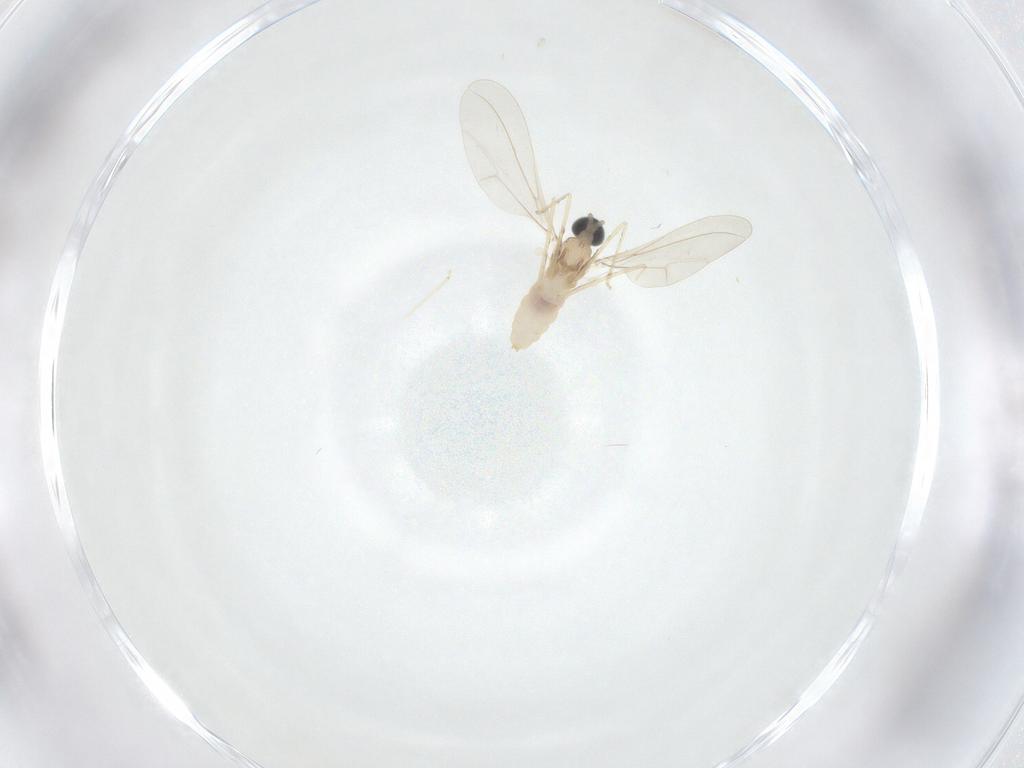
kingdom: Animalia
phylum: Arthropoda
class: Insecta
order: Diptera
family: Cecidomyiidae
